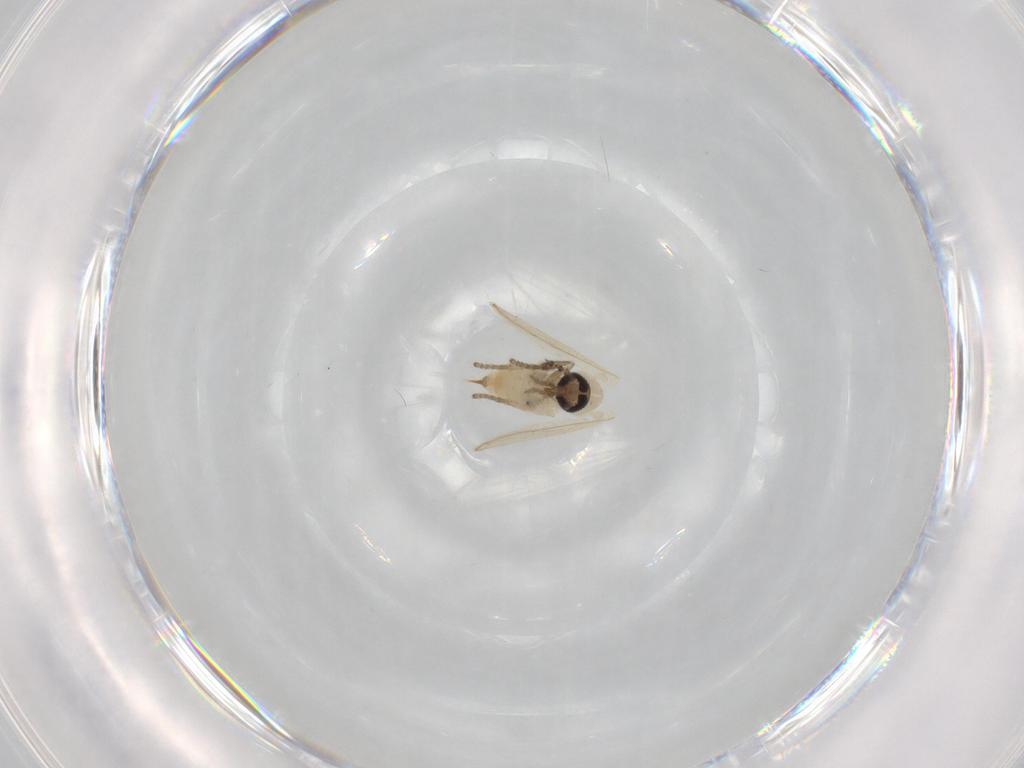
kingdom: Animalia
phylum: Arthropoda
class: Insecta
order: Diptera
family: Psychodidae
